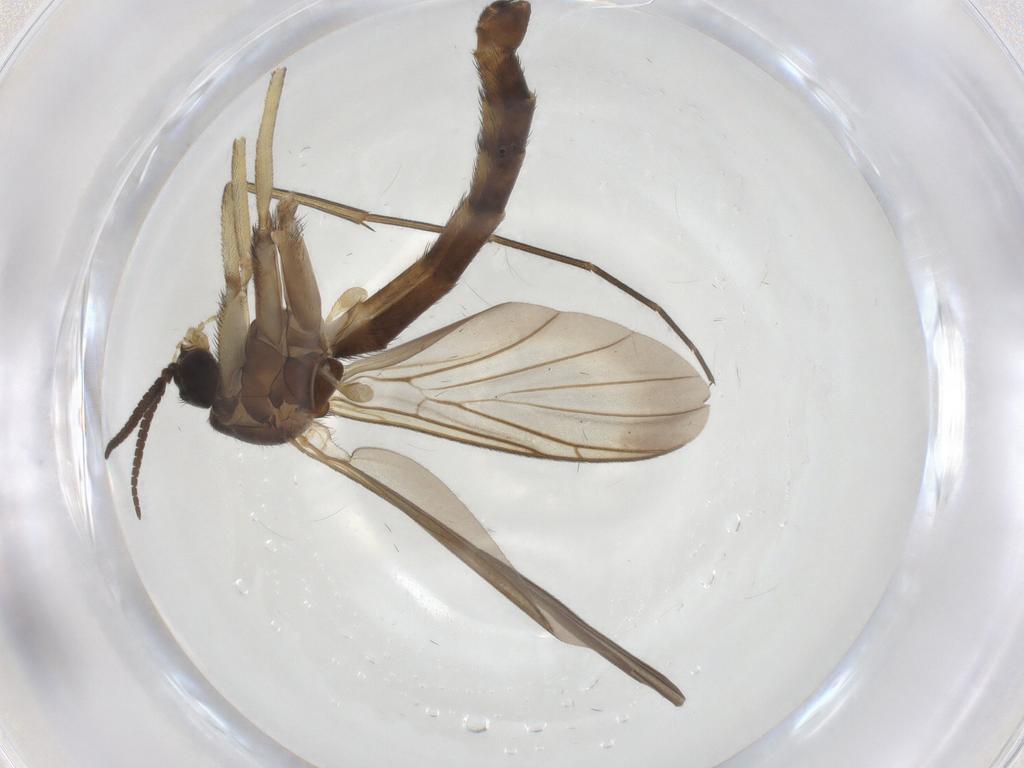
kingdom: Animalia
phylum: Arthropoda
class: Insecta
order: Diptera
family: Keroplatidae
